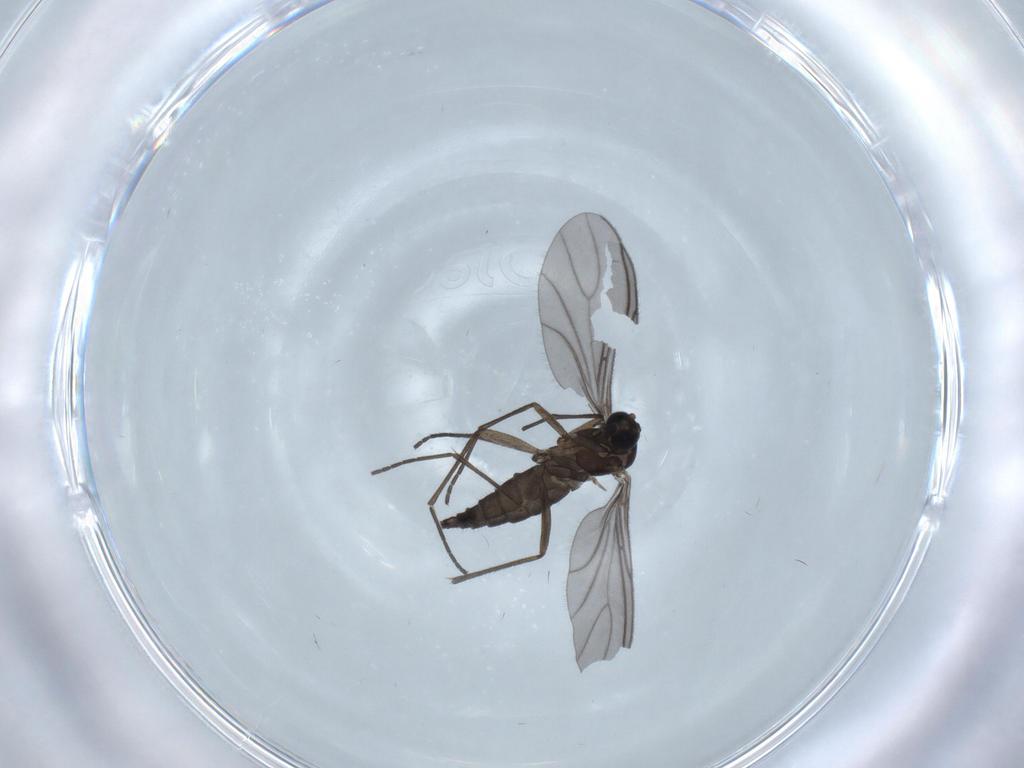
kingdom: Animalia
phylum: Arthropoda
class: Insecta
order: Diptera
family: Sciaridae
